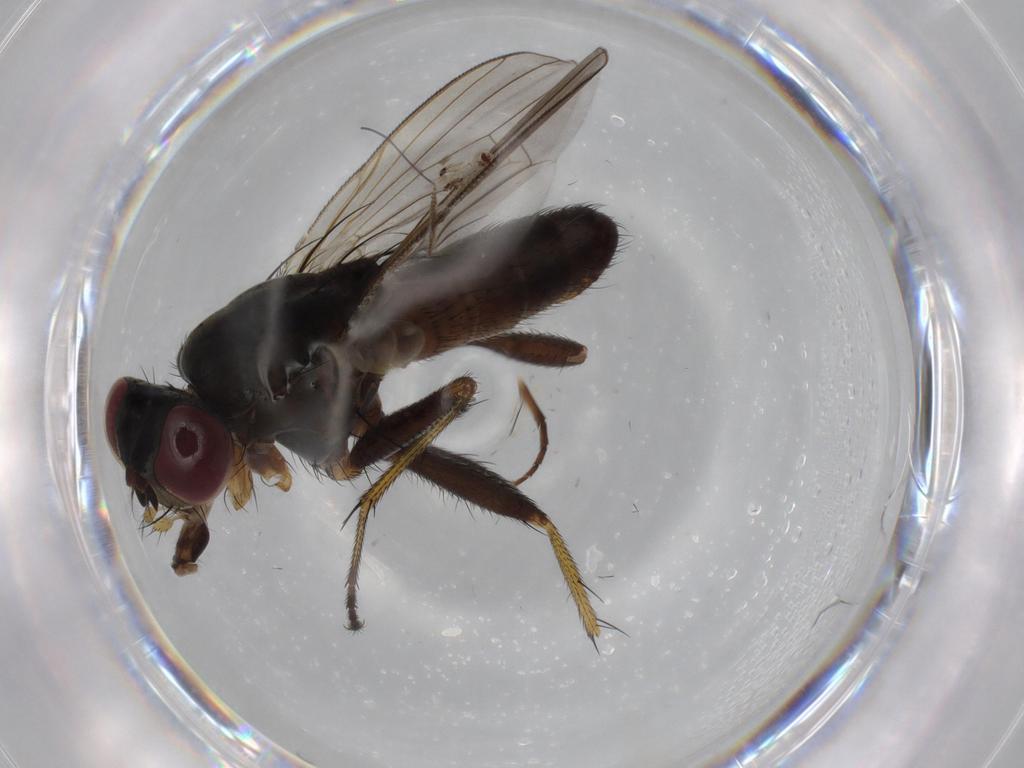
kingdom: Animalia
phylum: Arthropoda
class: Insecta
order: Diptera
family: Muscidae
